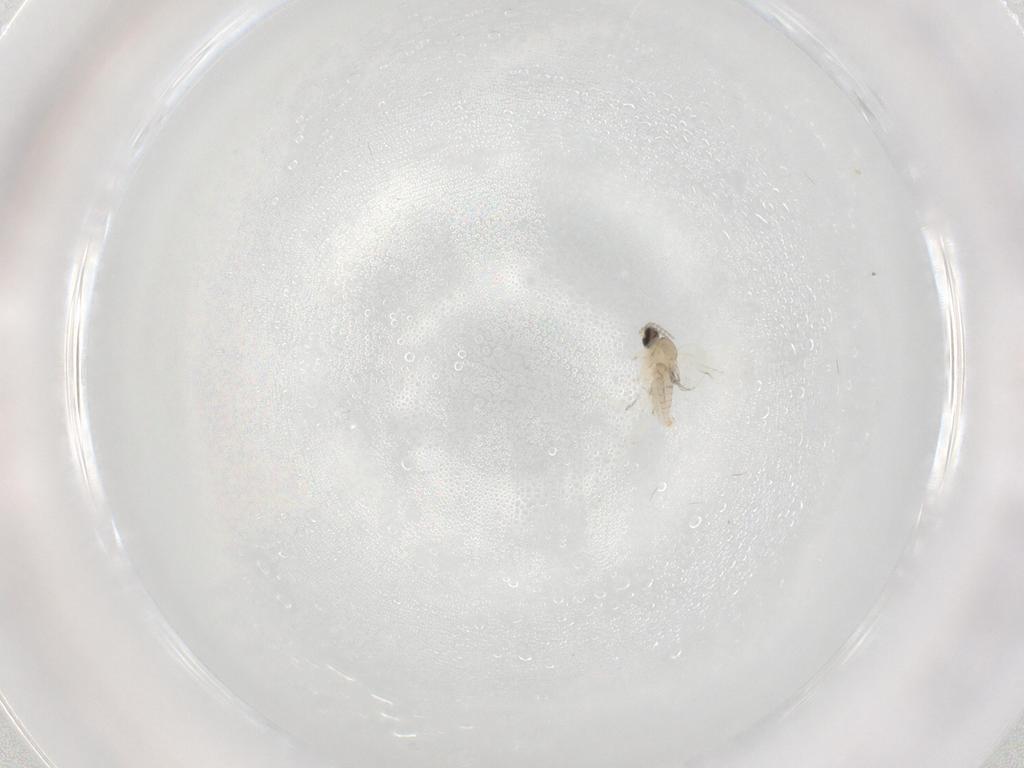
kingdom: Animalia
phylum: Arthropoda
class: Insecta
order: Diptera
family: Cecidomyiidae
